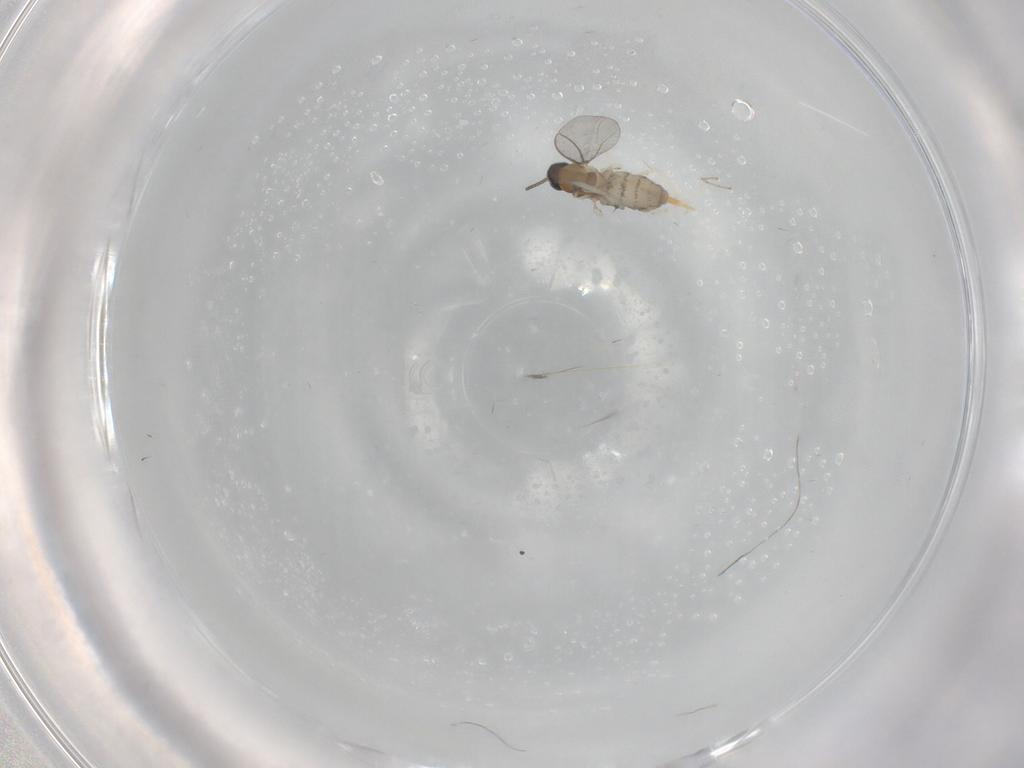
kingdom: Animalia
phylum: Arthropoda
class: Insecta
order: Diptera
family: Cecidomyiidae
